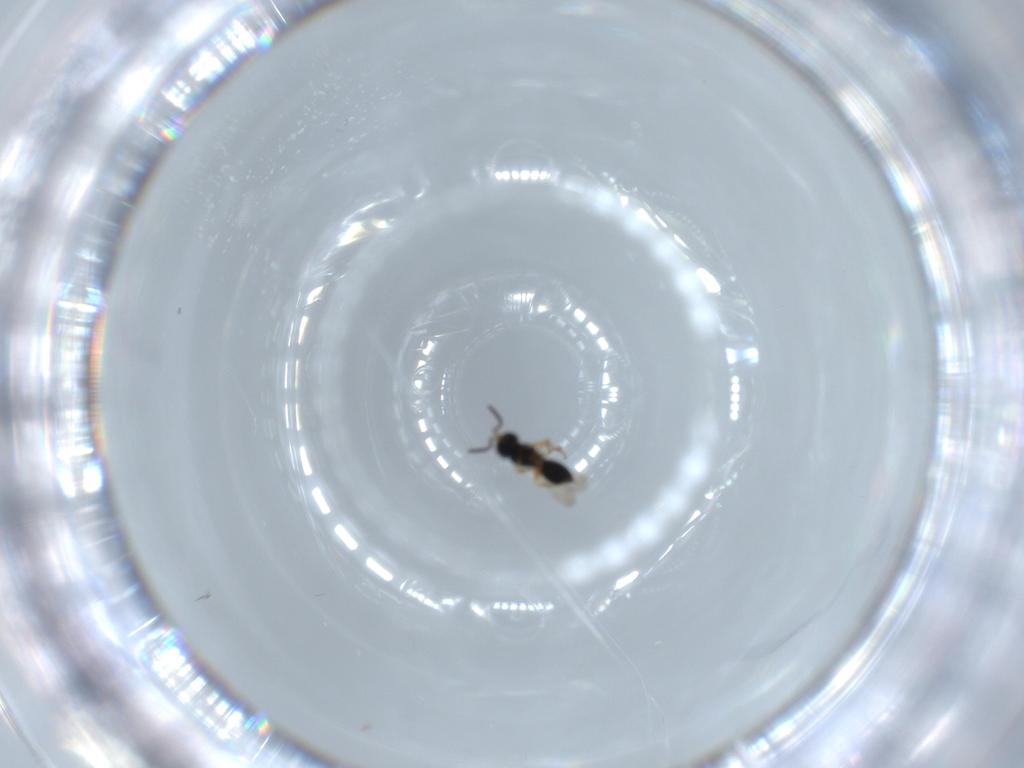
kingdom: Animalia
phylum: Arthropoda
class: Insecta
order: Hymenoptera
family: Scelionidae
